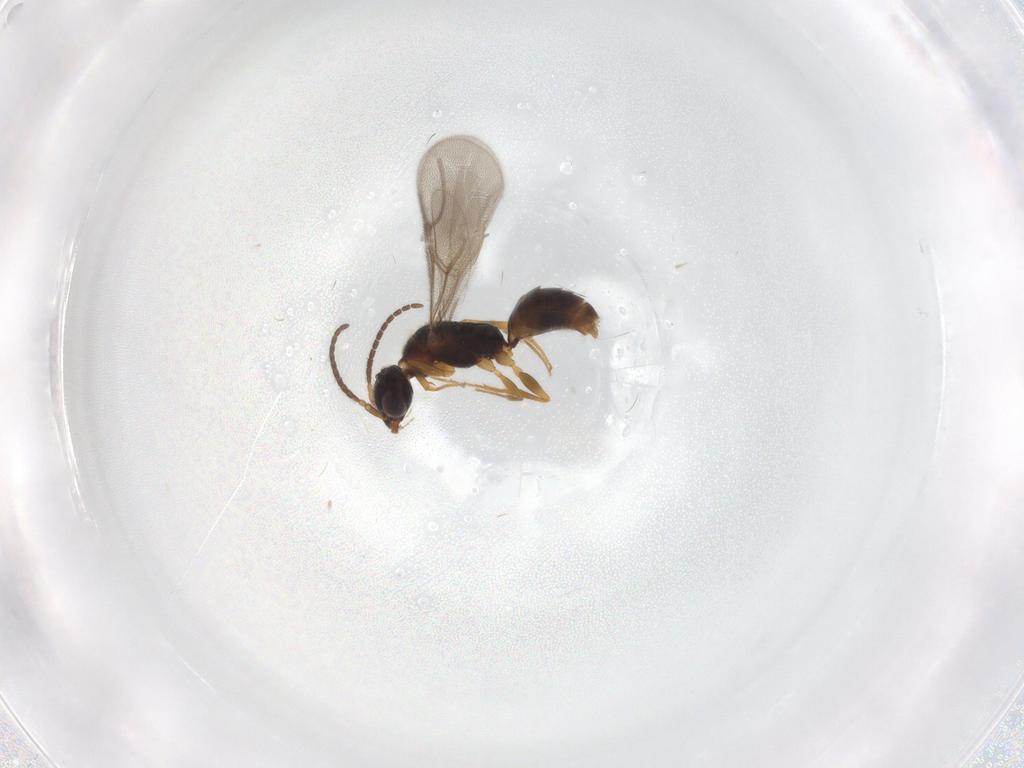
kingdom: Animalia
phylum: Arthropoda
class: Insecta
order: Hymenoptera
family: Bethylidae
